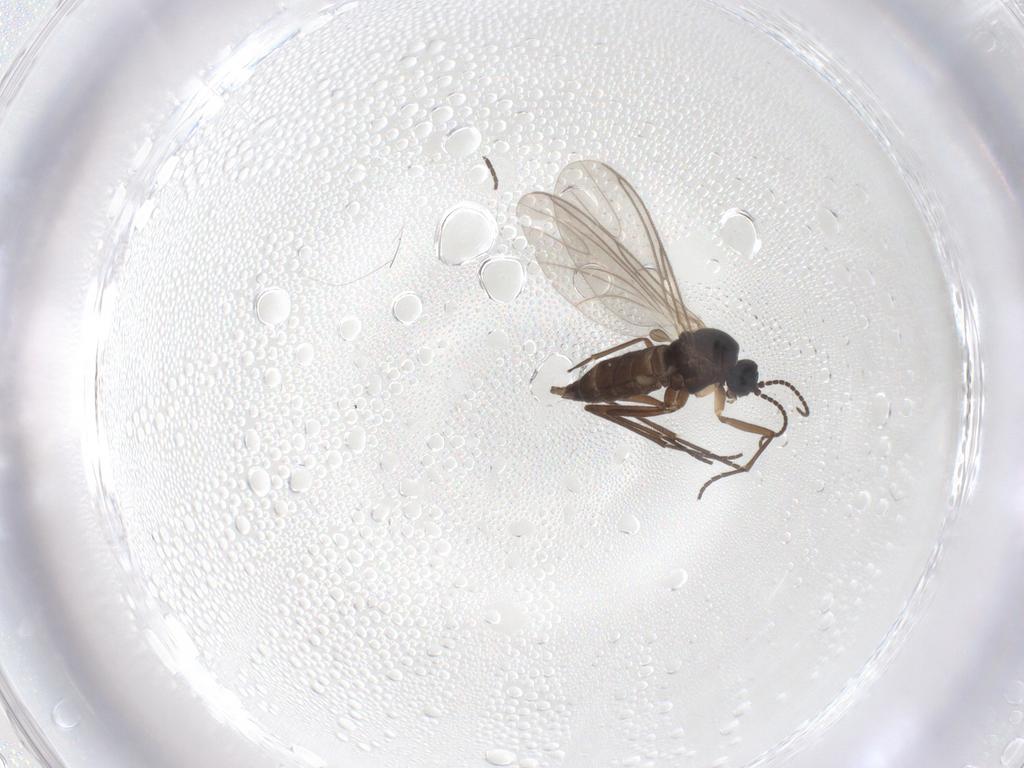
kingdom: Animalia
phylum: Arthropoda
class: Insecta
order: Diptera
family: Sciaridae
